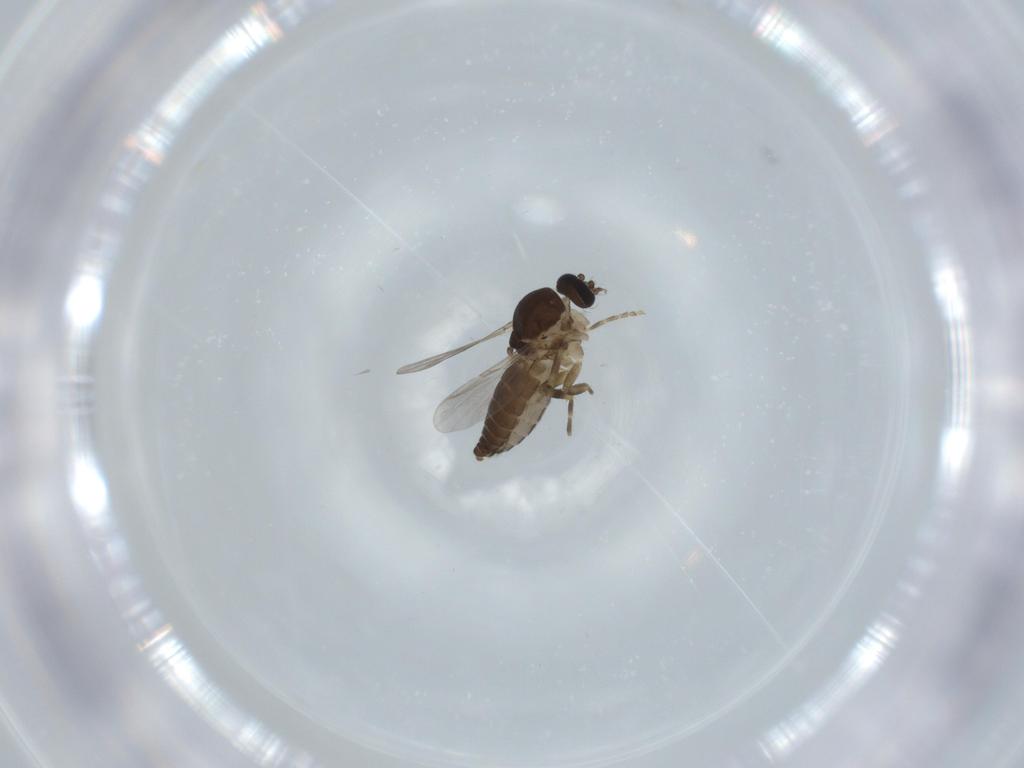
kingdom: Animalia
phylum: Arthropoda
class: Insecta
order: Diptera
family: Ceratopogonidae
